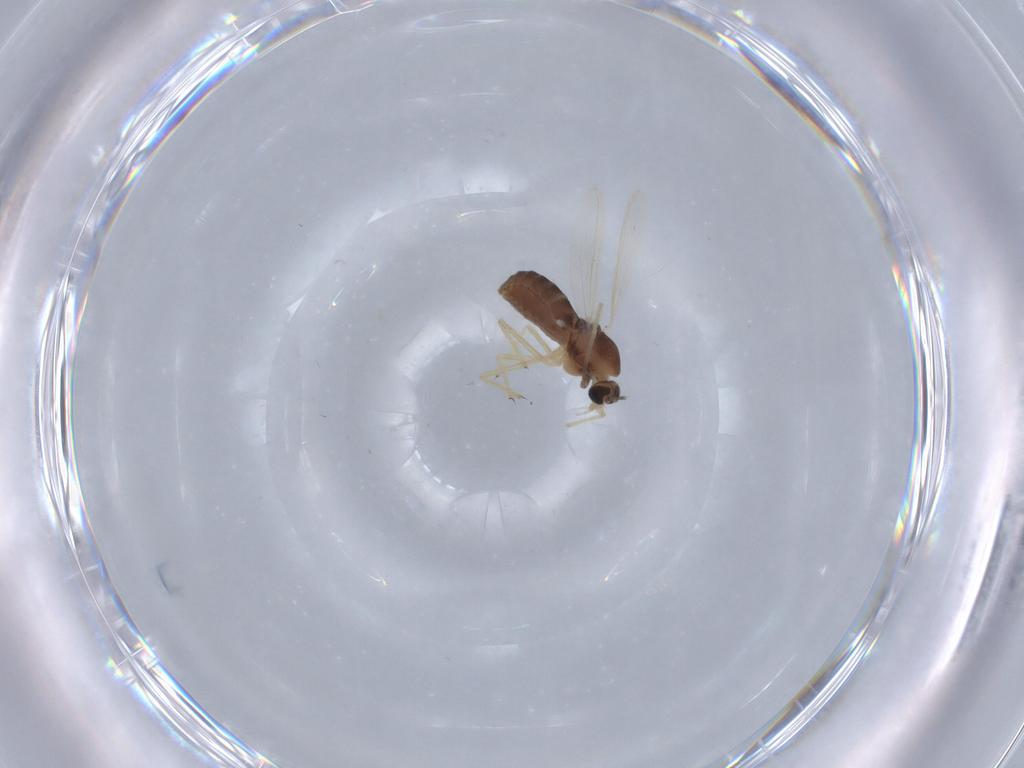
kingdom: Animalia
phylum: Arthropoda
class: Insecta
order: Diptera
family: Chironomidae
